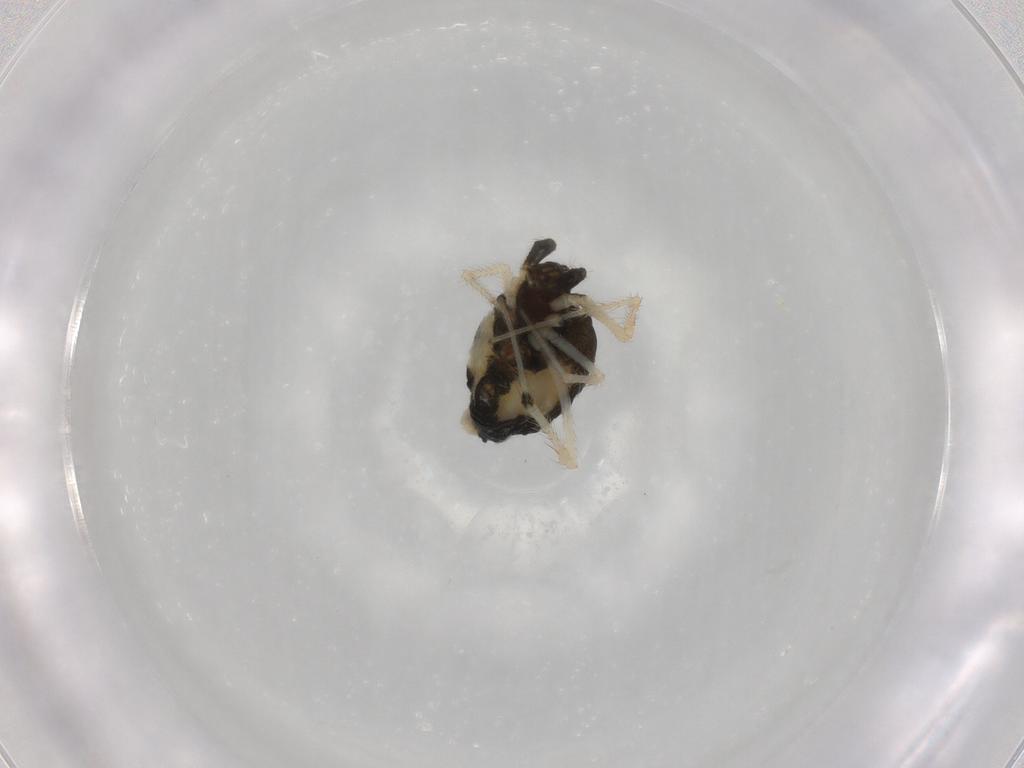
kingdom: Animalia
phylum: Arthropoda
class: Arachnida
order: Araneae
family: Theridiidae
